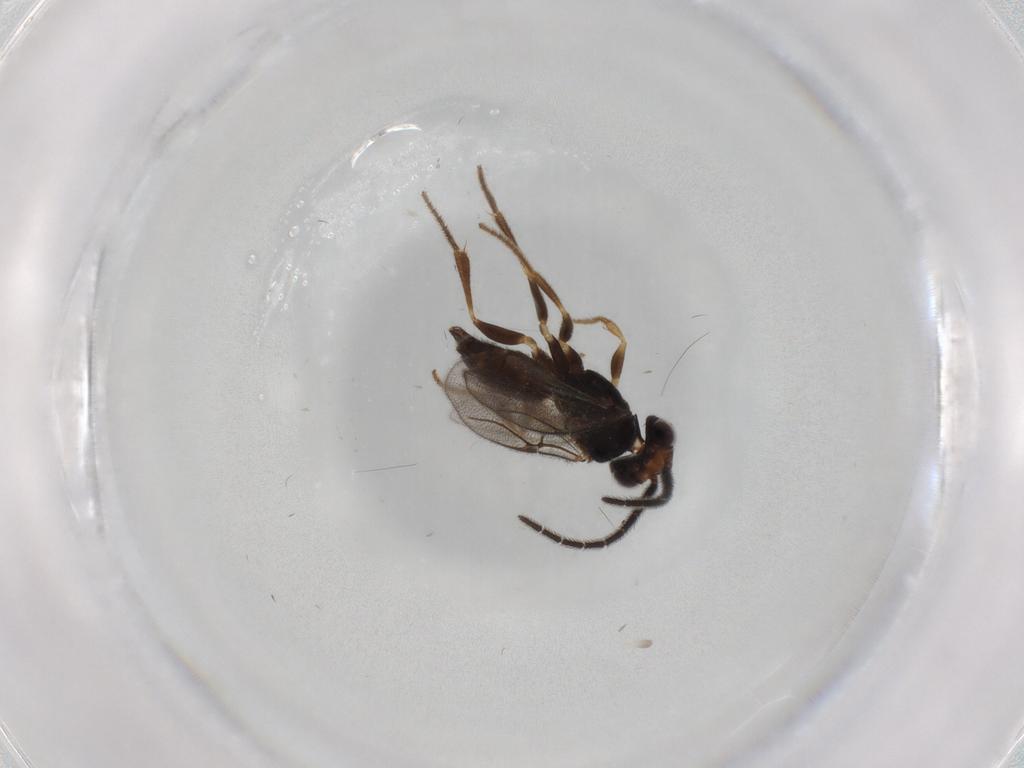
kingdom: Animalia
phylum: Arthropoda
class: Insecta
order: Hymenoptera
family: Dryinidae
